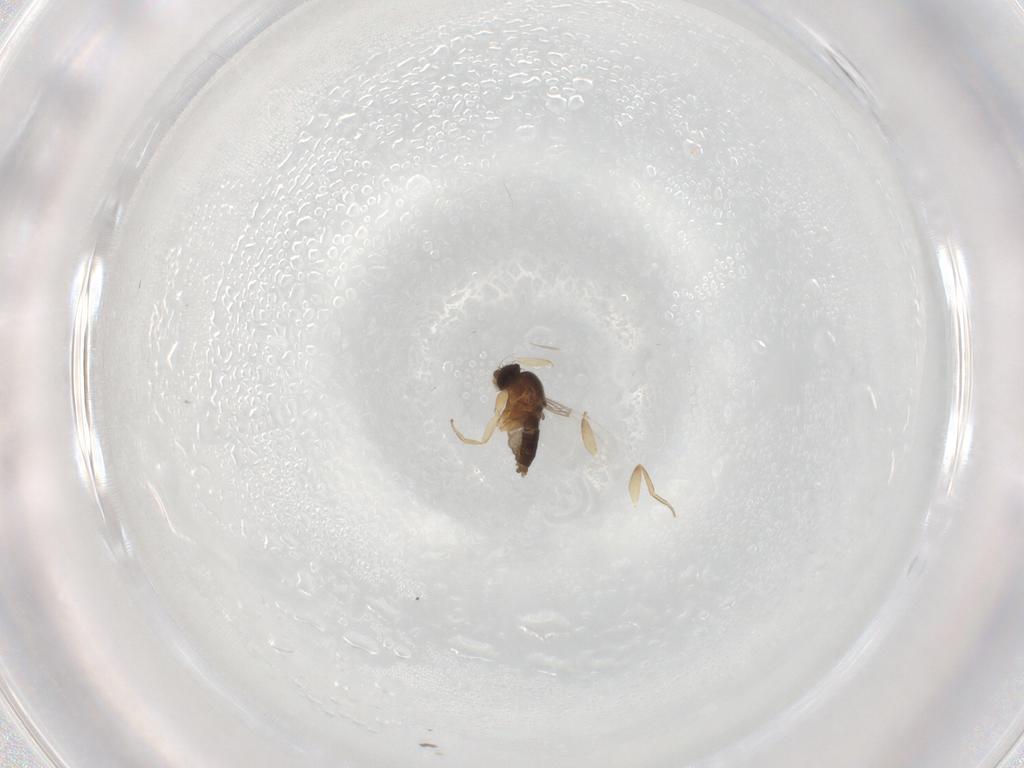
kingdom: Animalia
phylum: Arthropoda
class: Insecta
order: Diptera
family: Phoridae
